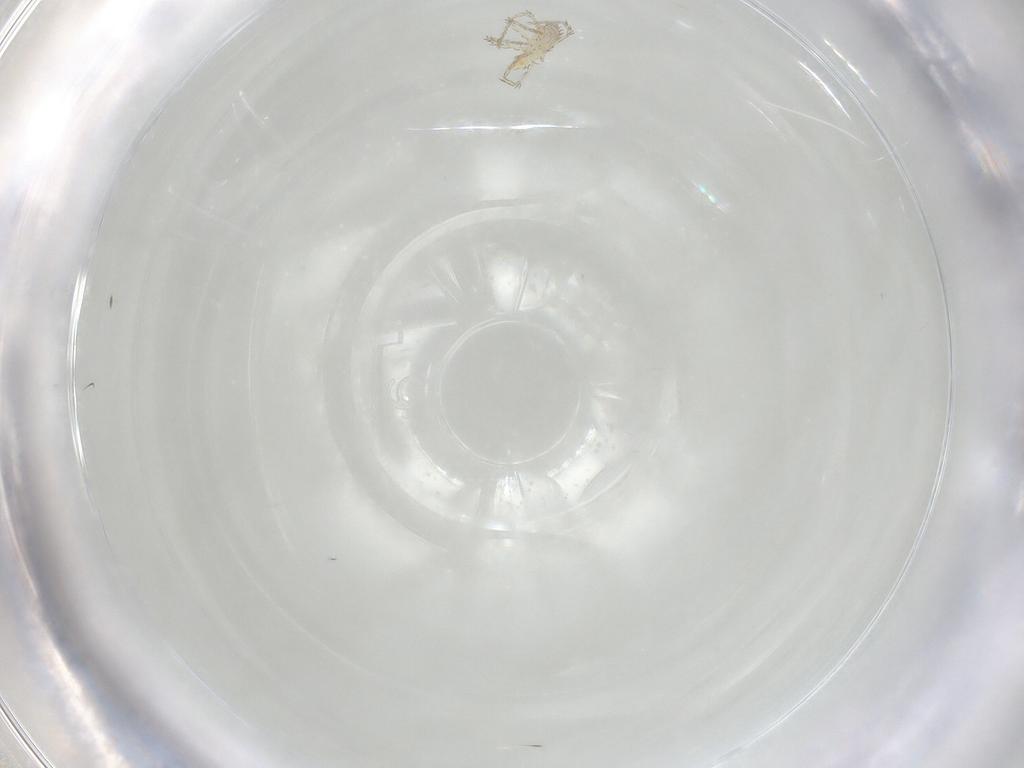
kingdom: Animalia
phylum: Arthropoda
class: Arachnida
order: Trombidiformes
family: Erythraeidae
